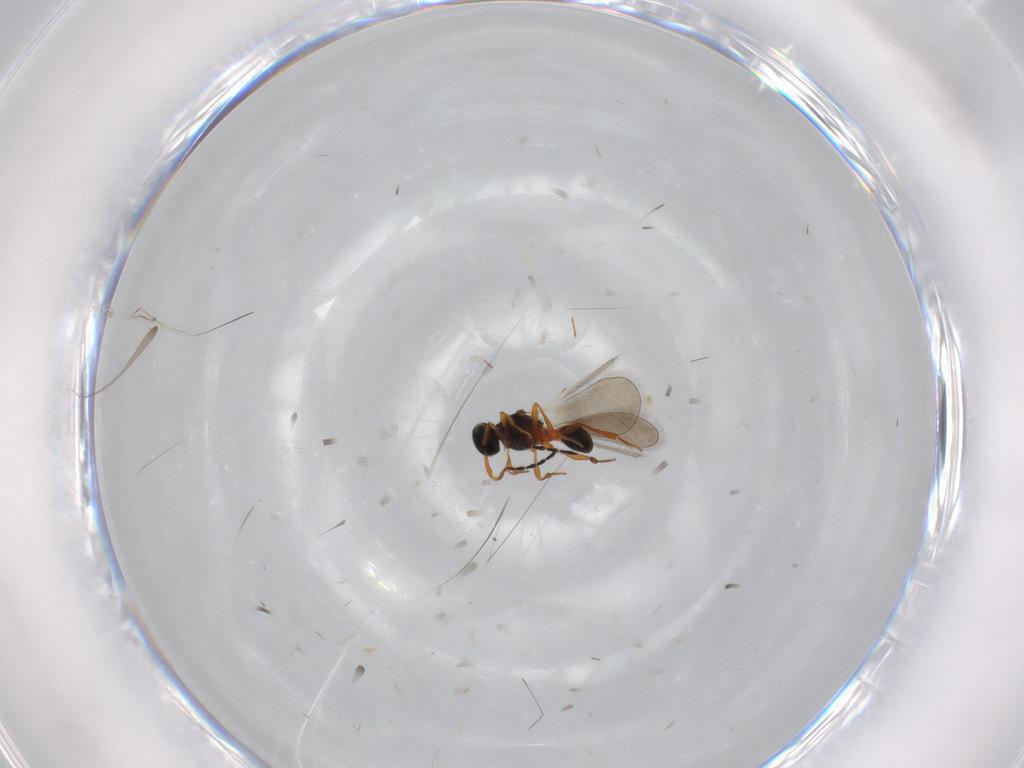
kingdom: Animalia
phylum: Arthropoda
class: Insecta
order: Hymenoptera
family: Platygastridae
